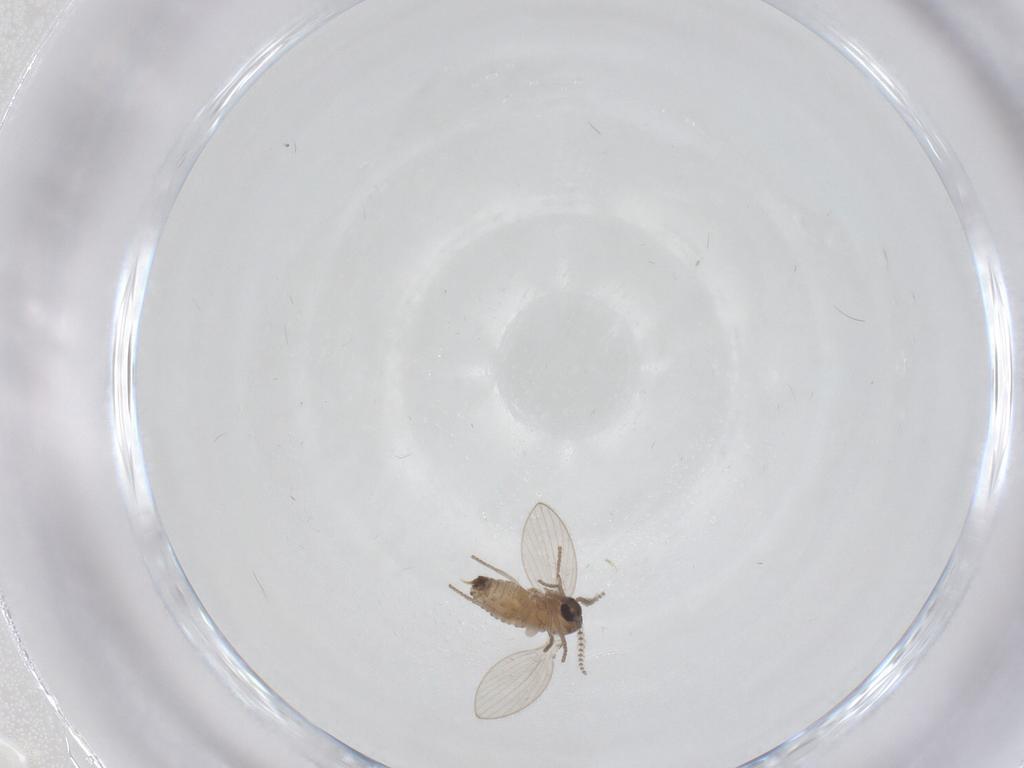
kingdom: Animalia
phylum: Arthropoda
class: Insecta
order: Diptera
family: Psychodidae
